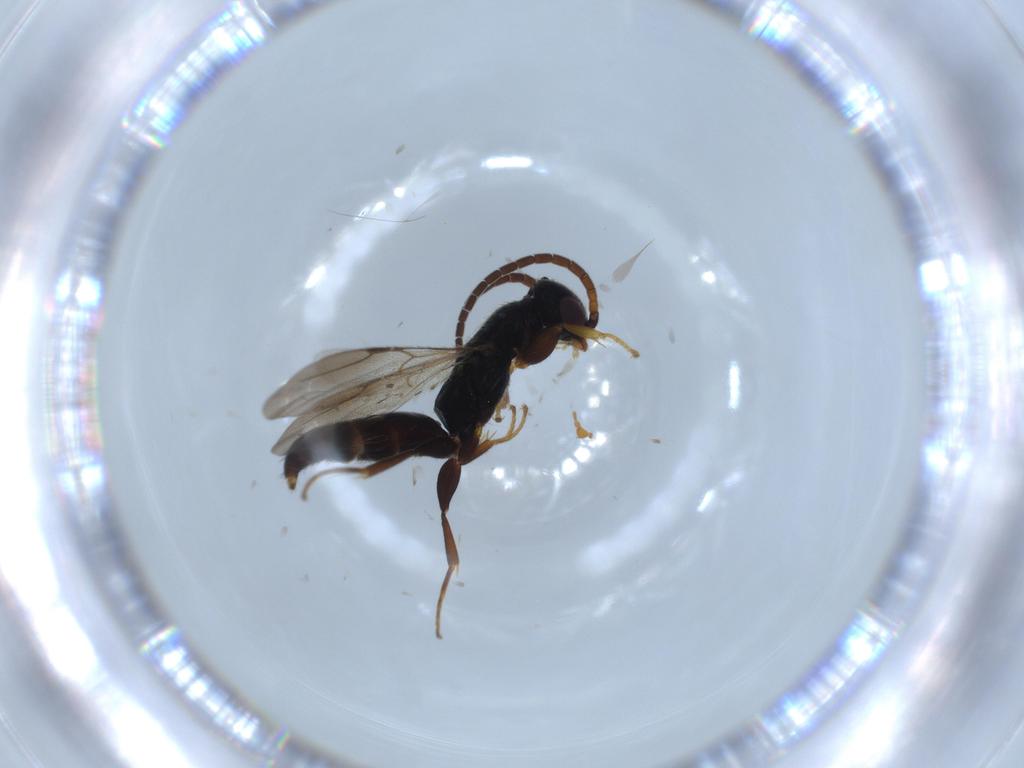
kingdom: Animalia
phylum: Arthropoda
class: Insecta
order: Hymenoptera
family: Bethylidae
